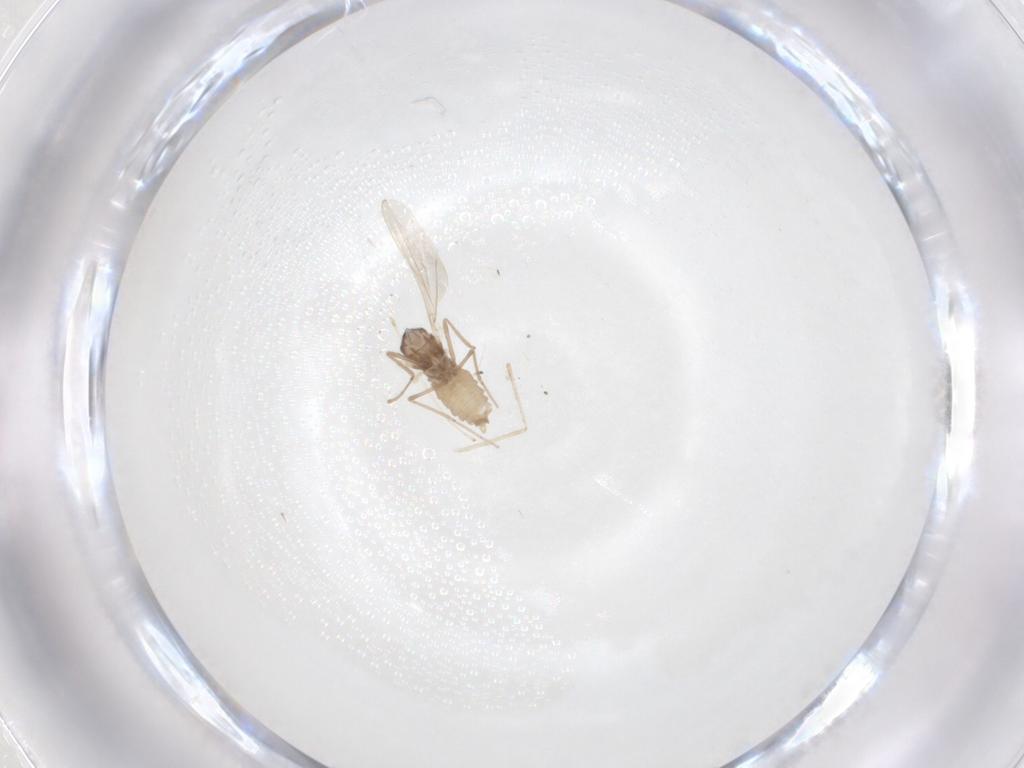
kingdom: Animalia
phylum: Arthropoda
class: Insecta
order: Diptera
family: Cecidomyiidae
